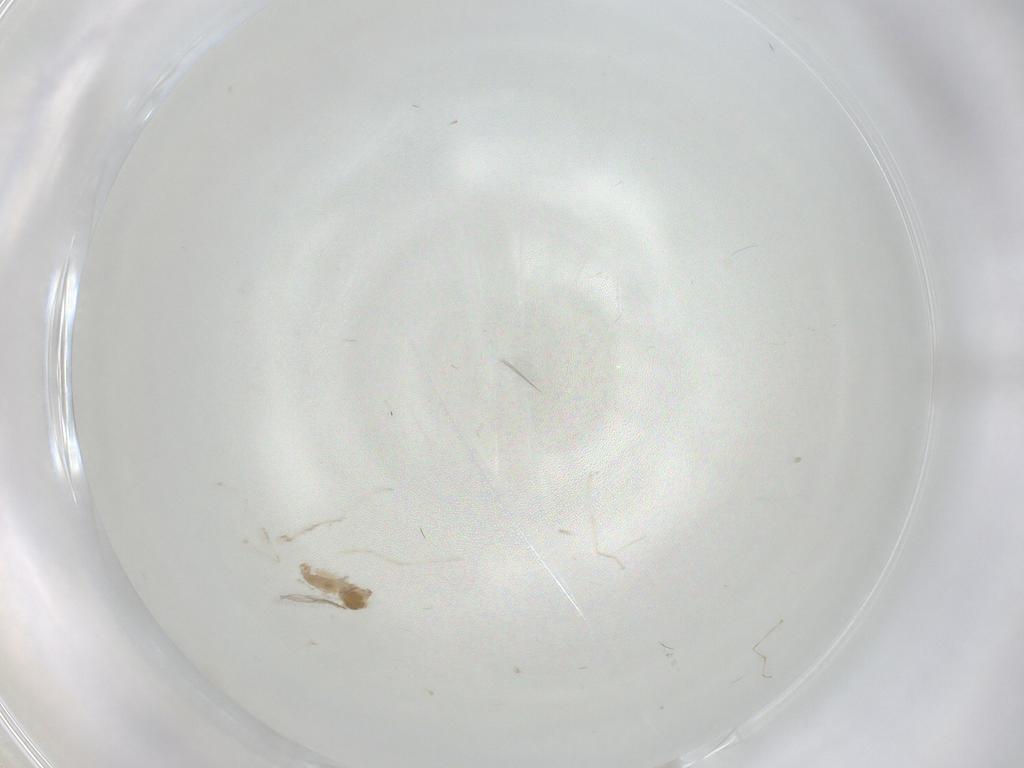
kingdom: Animalia
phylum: Arthropoda
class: Insecta
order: Diptera
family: Cecidomyiidae
